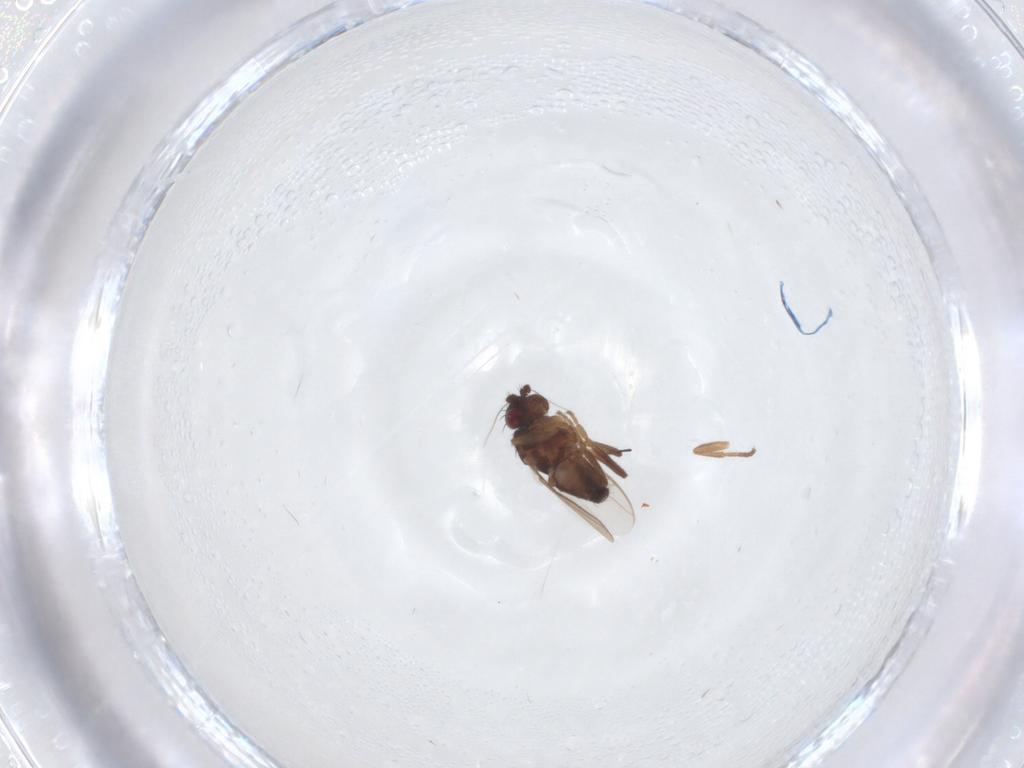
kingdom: Animalia
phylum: Arthropoda
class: Insecta
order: Diptera
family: Sphaeroceridae
